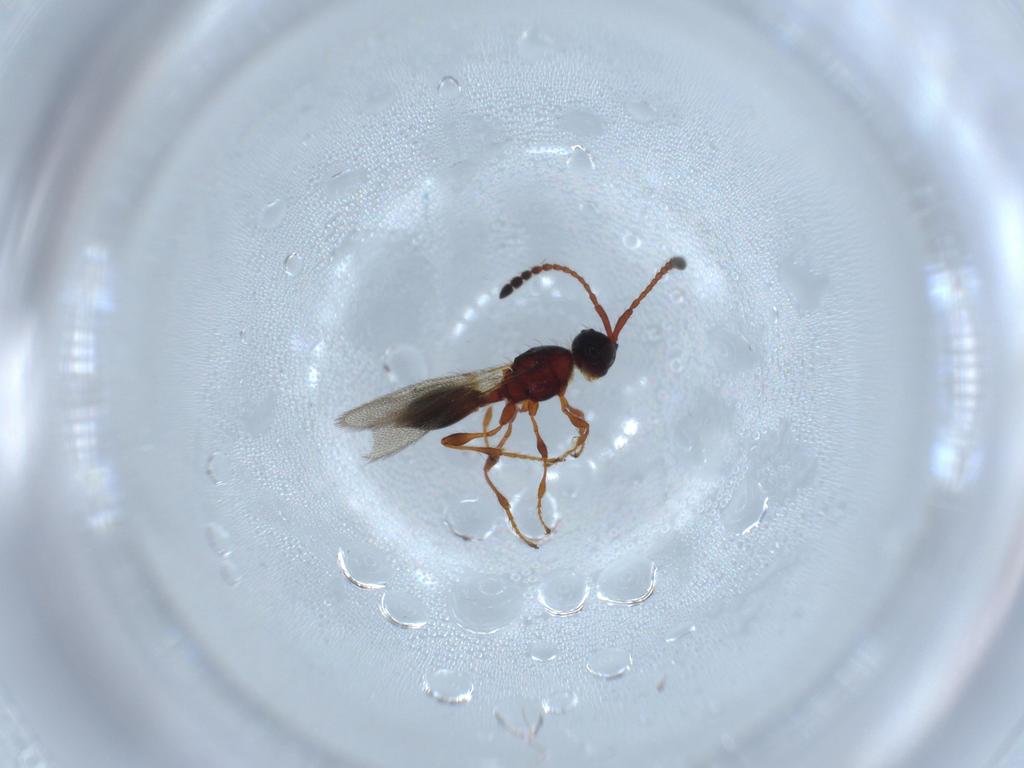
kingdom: Animalia
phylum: Arthropoda
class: Insecta
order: Hymenoptera
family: Diapriidae
